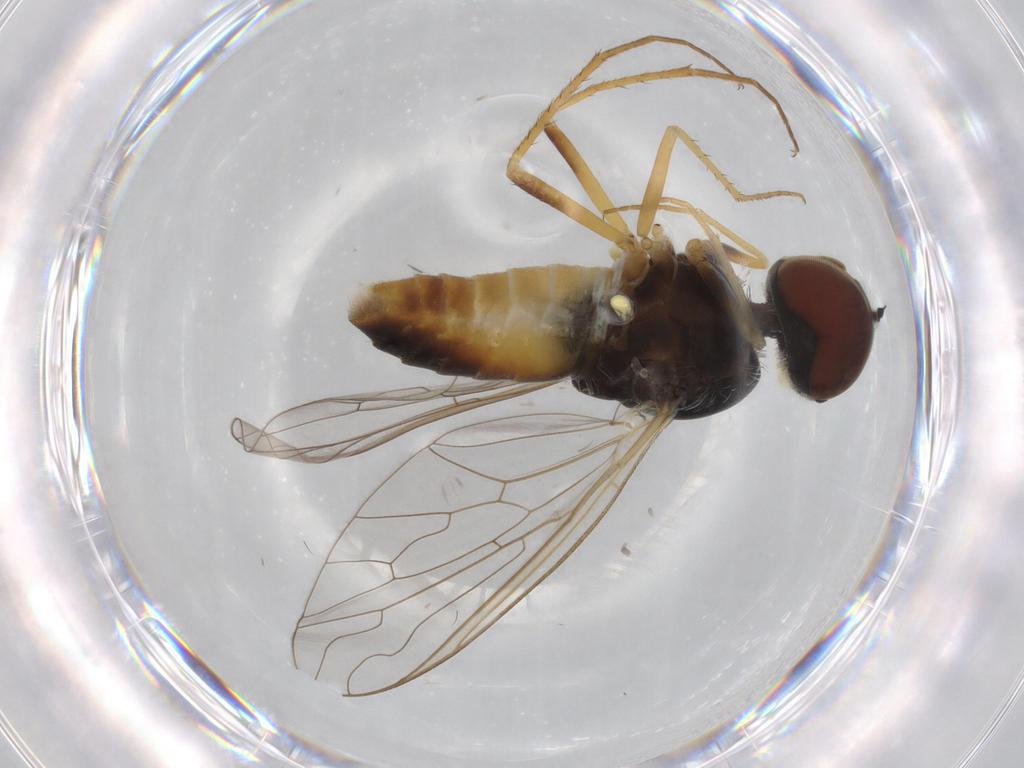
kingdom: Animalia
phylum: Arthropoda
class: Insecta
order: Diptera
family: Bombyliidae
